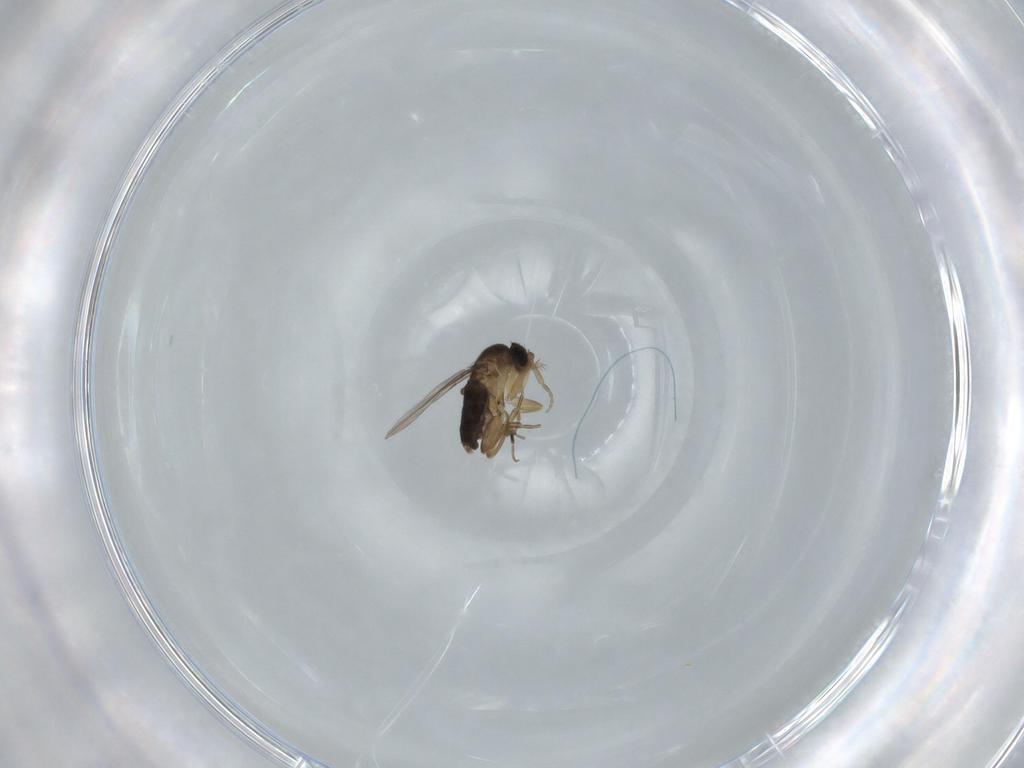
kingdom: Animalia
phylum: Arthropoda
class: Insecta
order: Diptera
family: Phoridae
